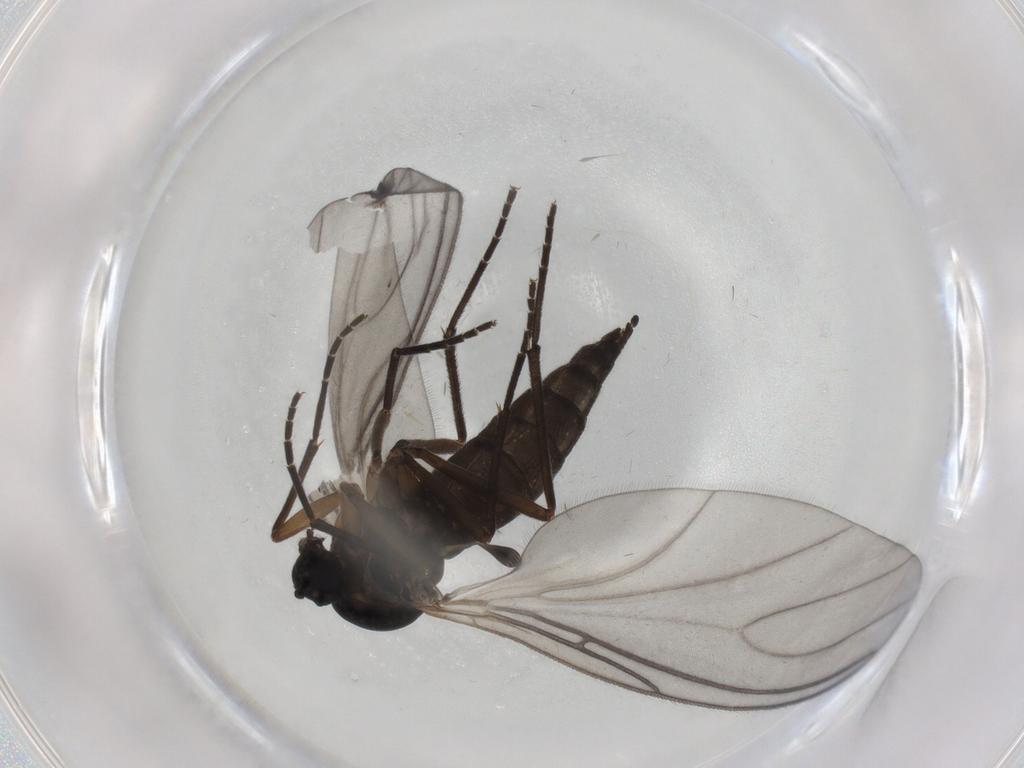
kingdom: Animalia
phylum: Arthropoda
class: Insecta
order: Diptera
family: Sciaridae
